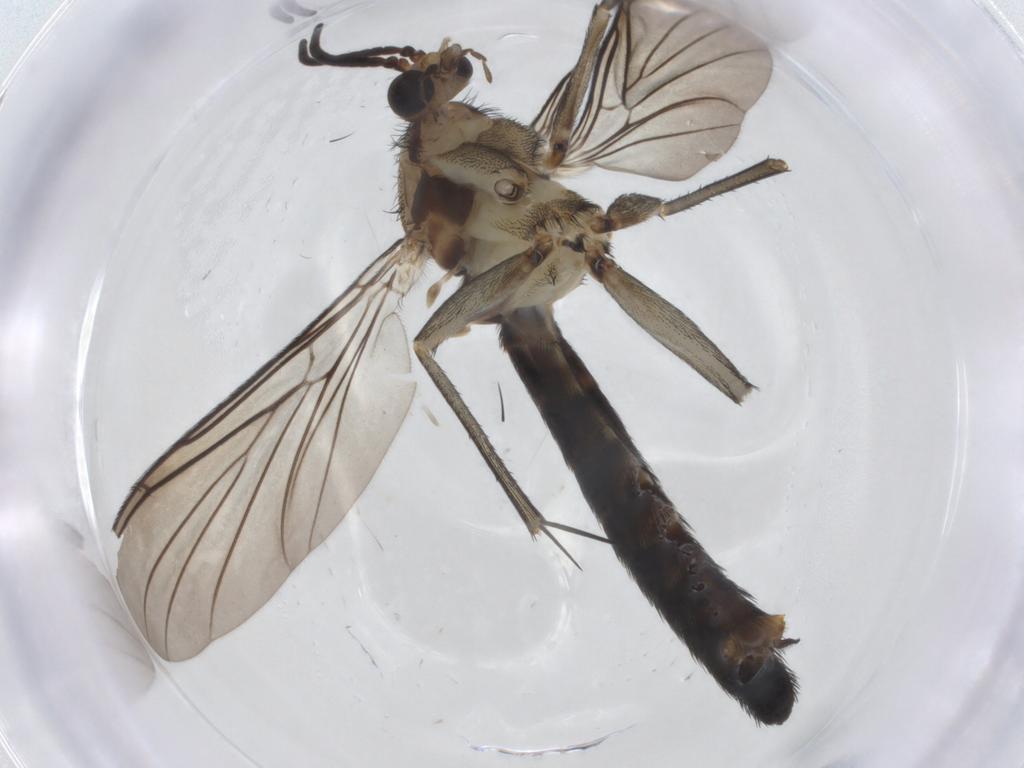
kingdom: Animalia
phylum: Arthropoda
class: Insecta
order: Diptera
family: Keroplatidae
